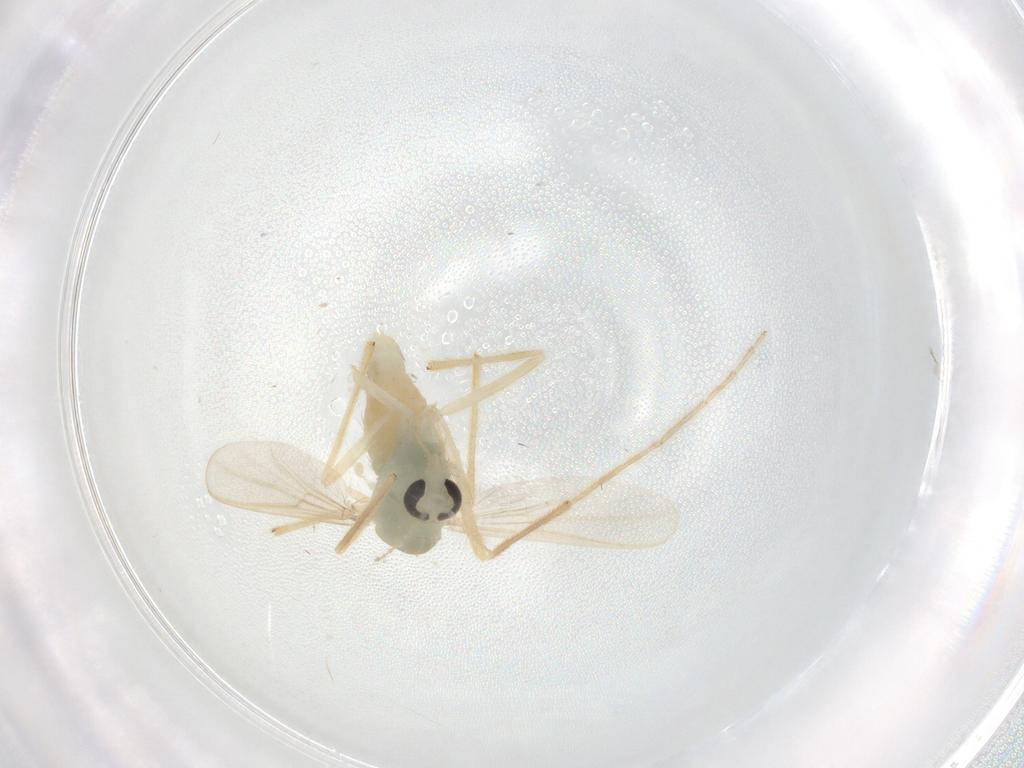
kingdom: Animalia
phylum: Arthropoda
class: Insecta
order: Diptera
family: Chironomidae
